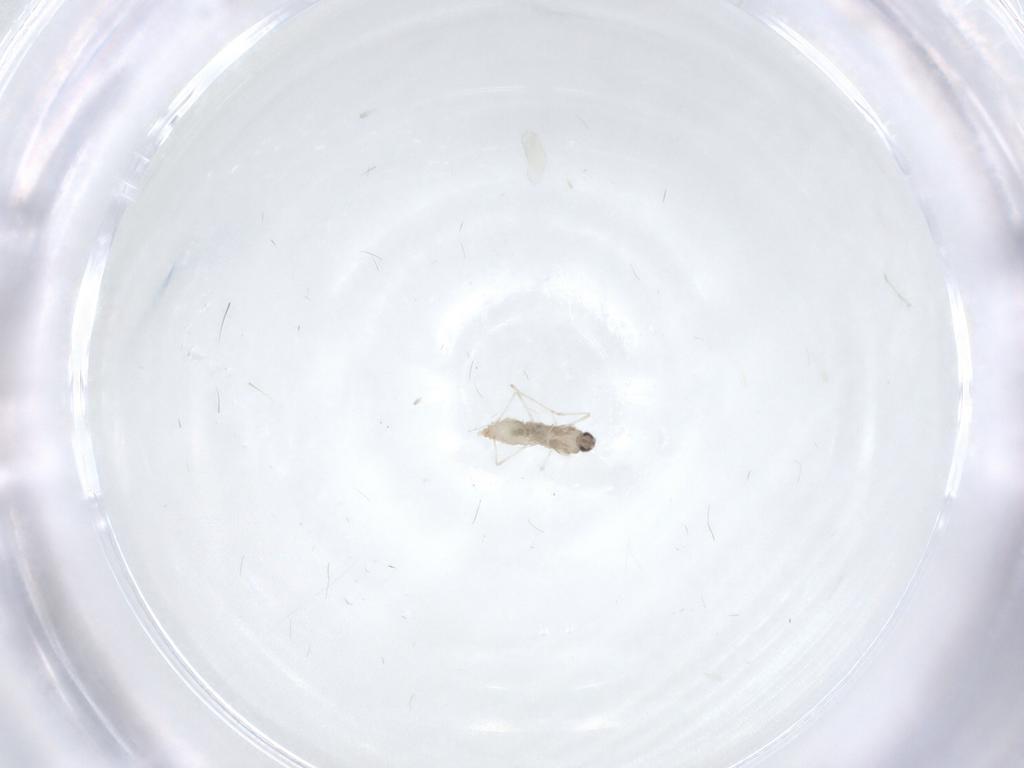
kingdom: Animalia
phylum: Arthropoda
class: Insecta
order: Diptera
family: Cecidomyiidae
